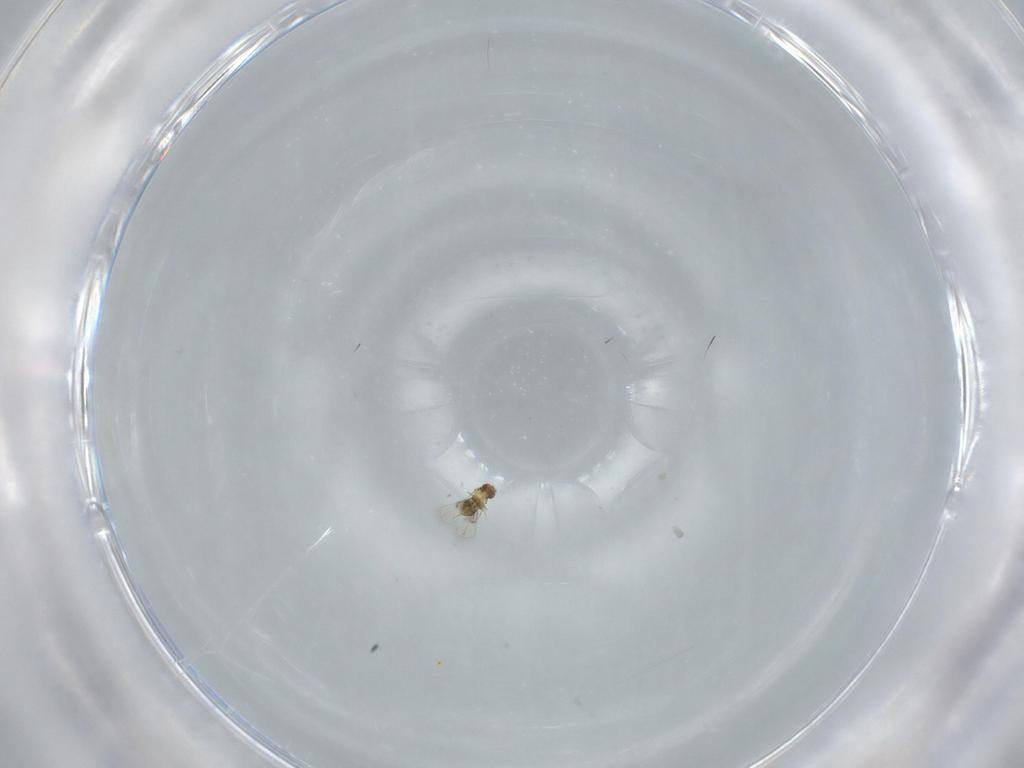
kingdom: Animalia
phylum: Arthropoda
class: Insecta
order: Hymenoptera
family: Trichogrammatidae
